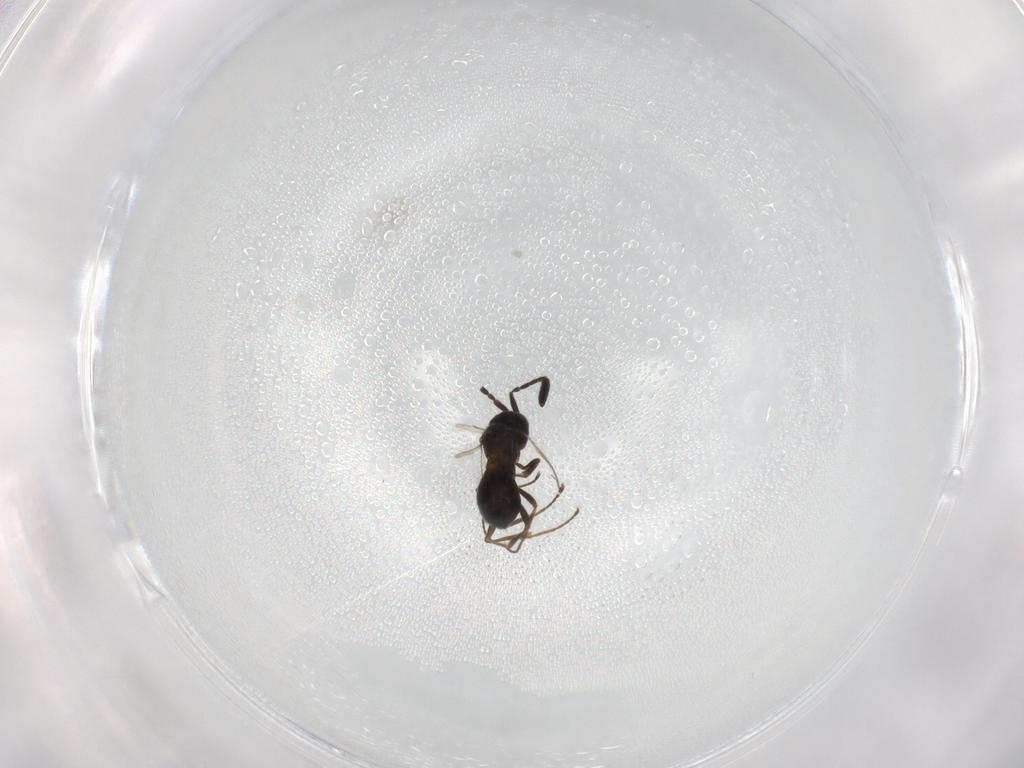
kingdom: Animalia
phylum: Arthropoda
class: Insecta
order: Hymenoptera
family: Scelionidae
